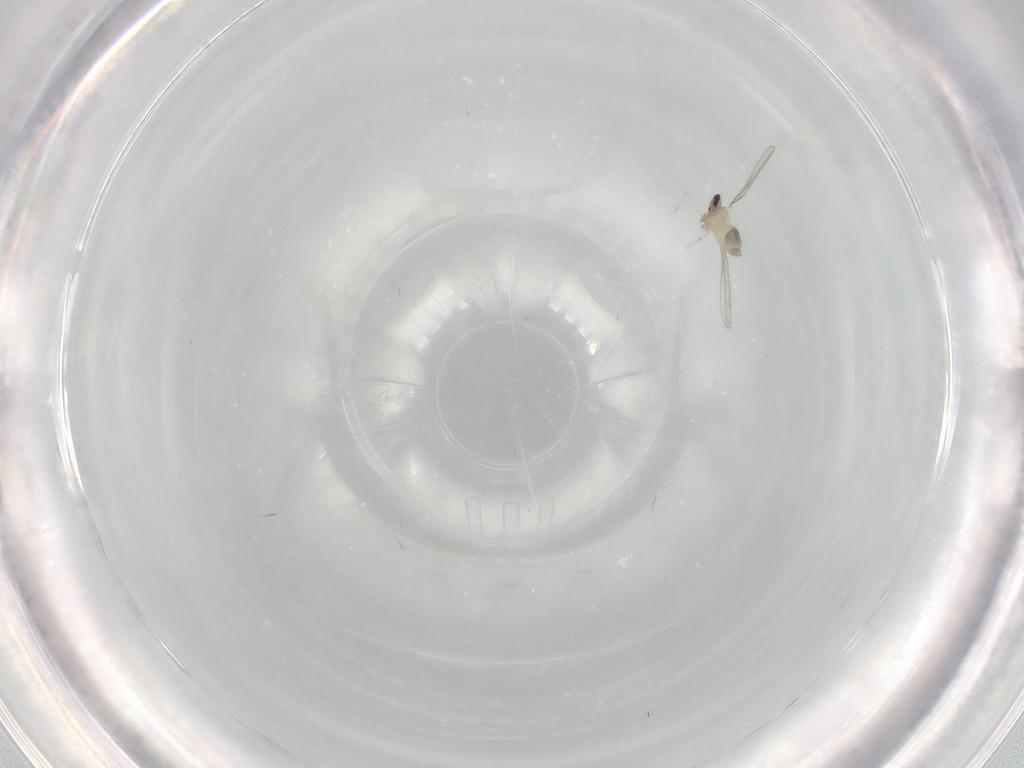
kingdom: Animalia
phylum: Arthropoda
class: Insecta
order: Diptera
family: Cecidomyiidae
